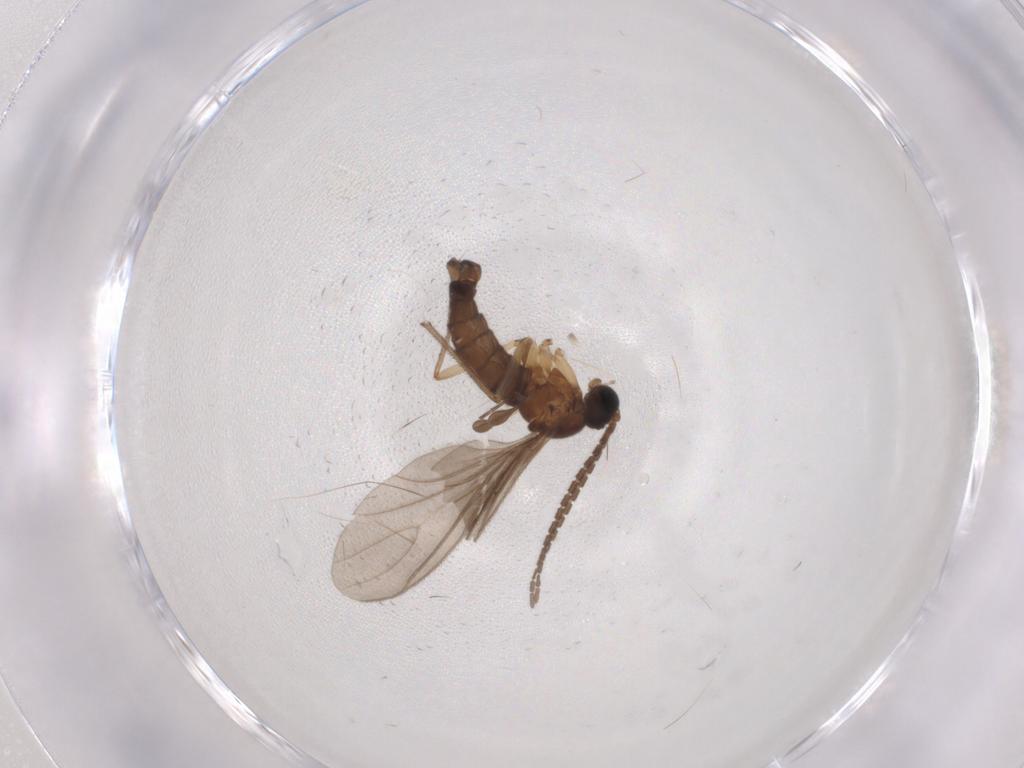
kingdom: Animalia
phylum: Arthropoda
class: Insecta
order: Diptera
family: Sciaridae
